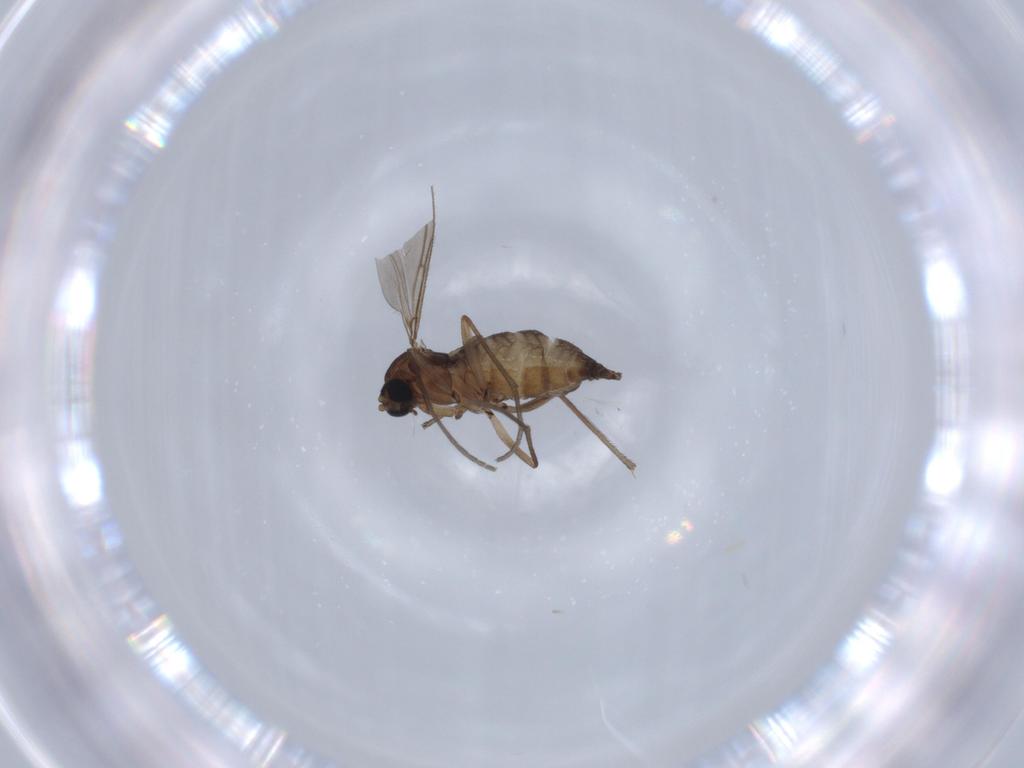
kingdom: Animalia
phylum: Arthropoda
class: Insecta
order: Diptera
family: Sciaridae
